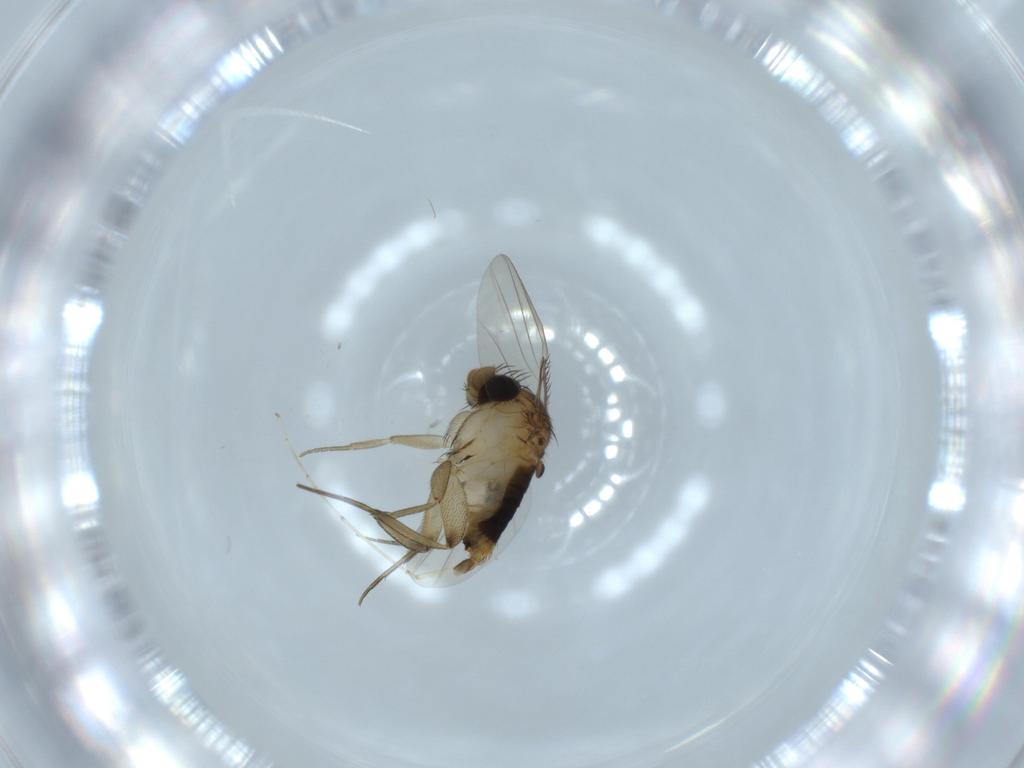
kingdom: Animalia
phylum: Arthropoda
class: Insecta
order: Diptera
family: Phoridae
